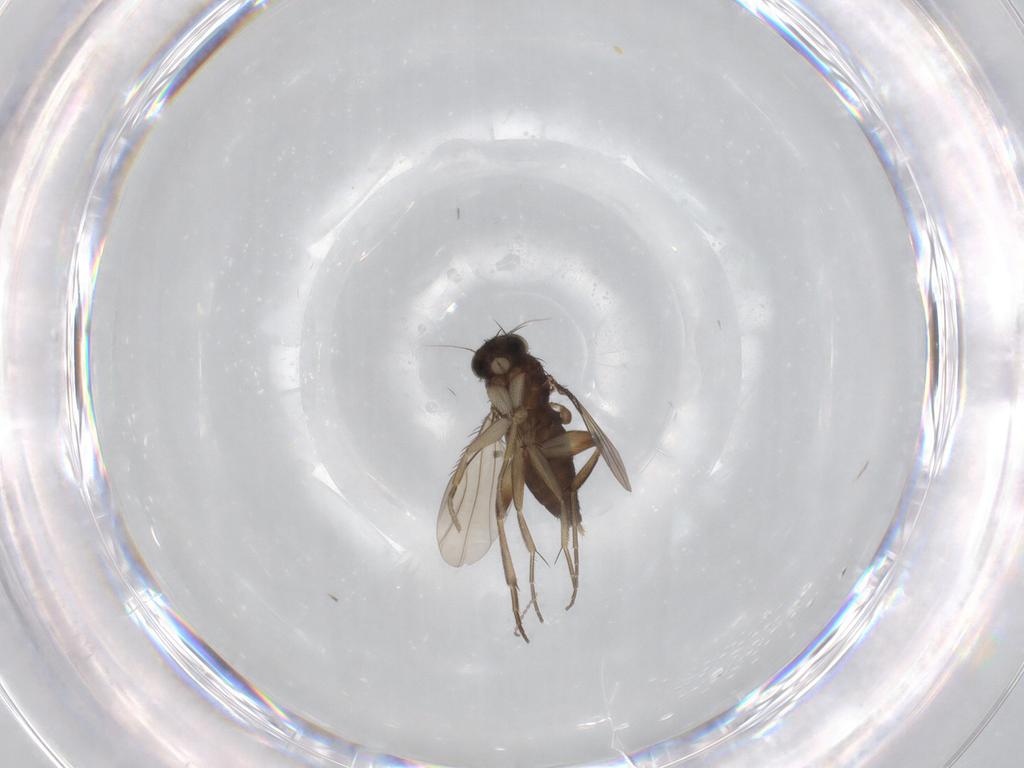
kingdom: Animalia
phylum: Arthropoda
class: Insecta
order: Diptera
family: Phoridae
